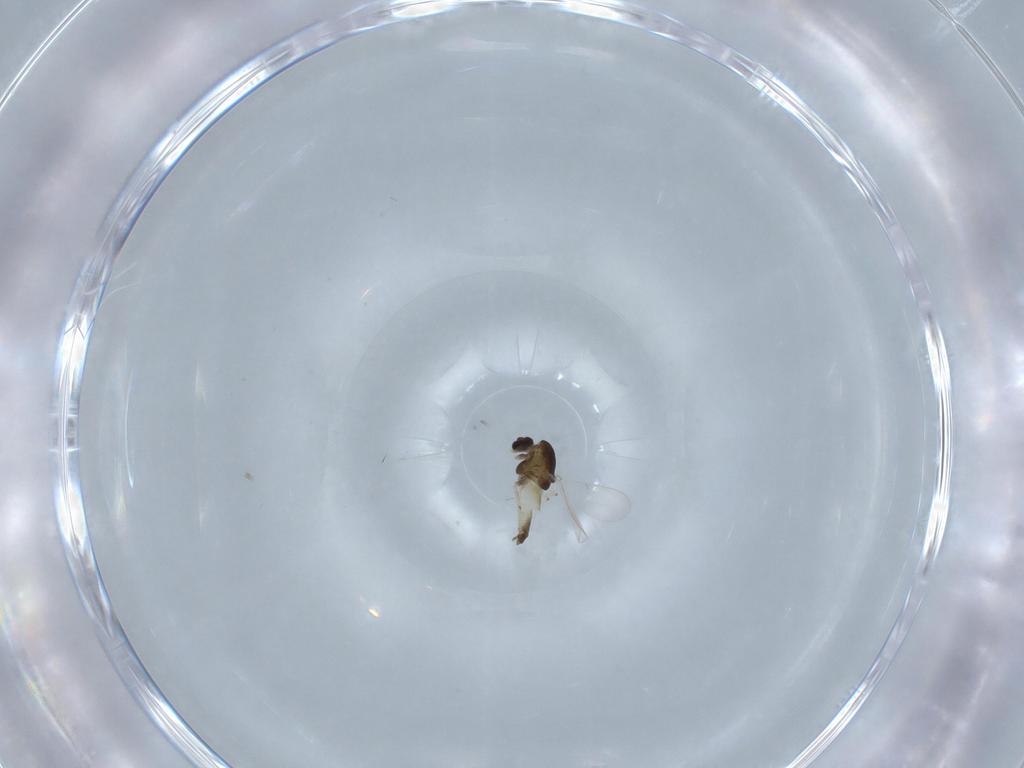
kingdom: Animalia
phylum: Arthropoda
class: Insecta
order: Diptera
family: Chironomidae
